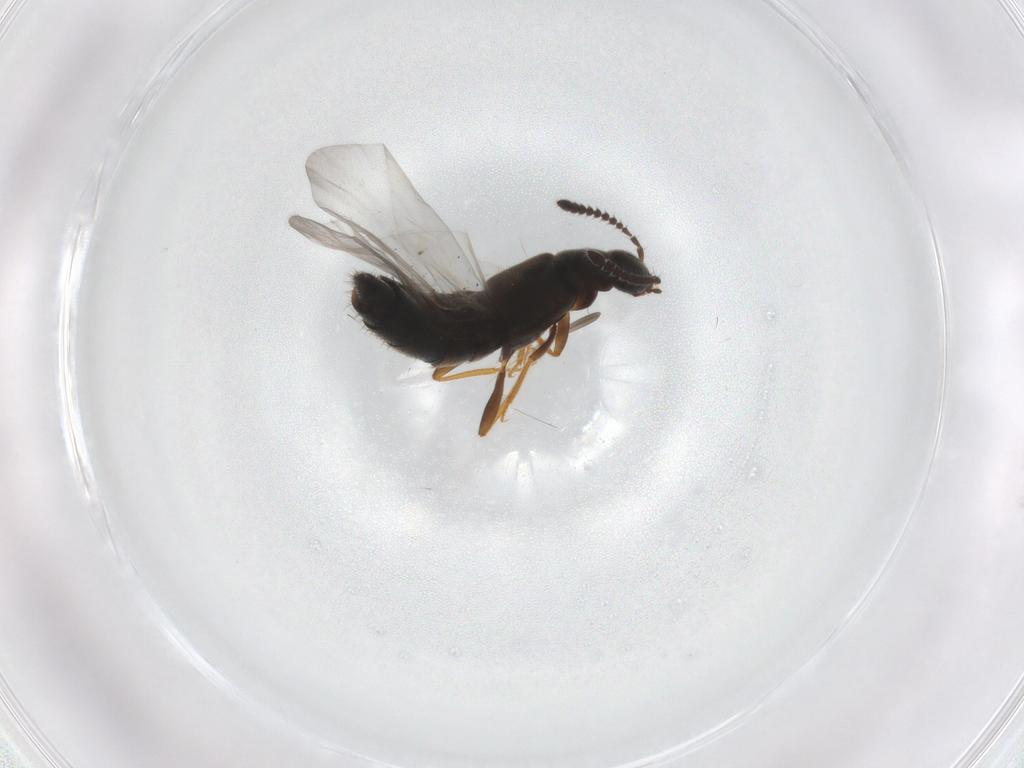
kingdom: Animalia
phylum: Arthropoda
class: Insecta
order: Coleoptera
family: Staphylinidae
